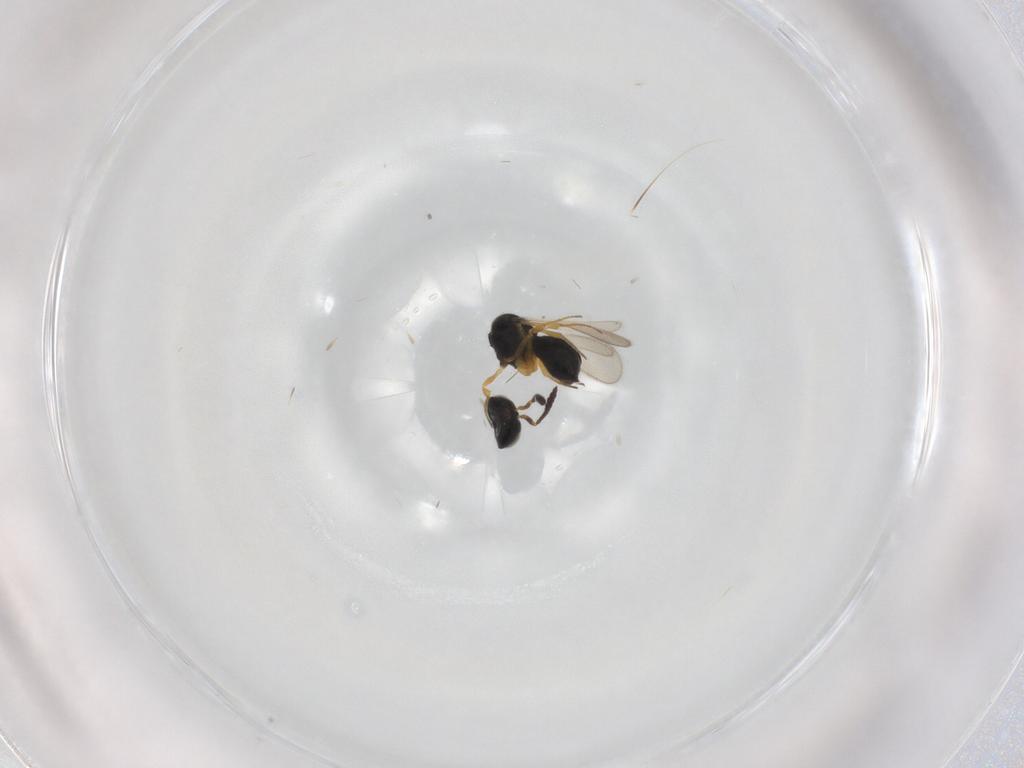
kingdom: Animalia
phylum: Arthropoda
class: Insecta
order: Hymenoptera
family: Scelionidae
